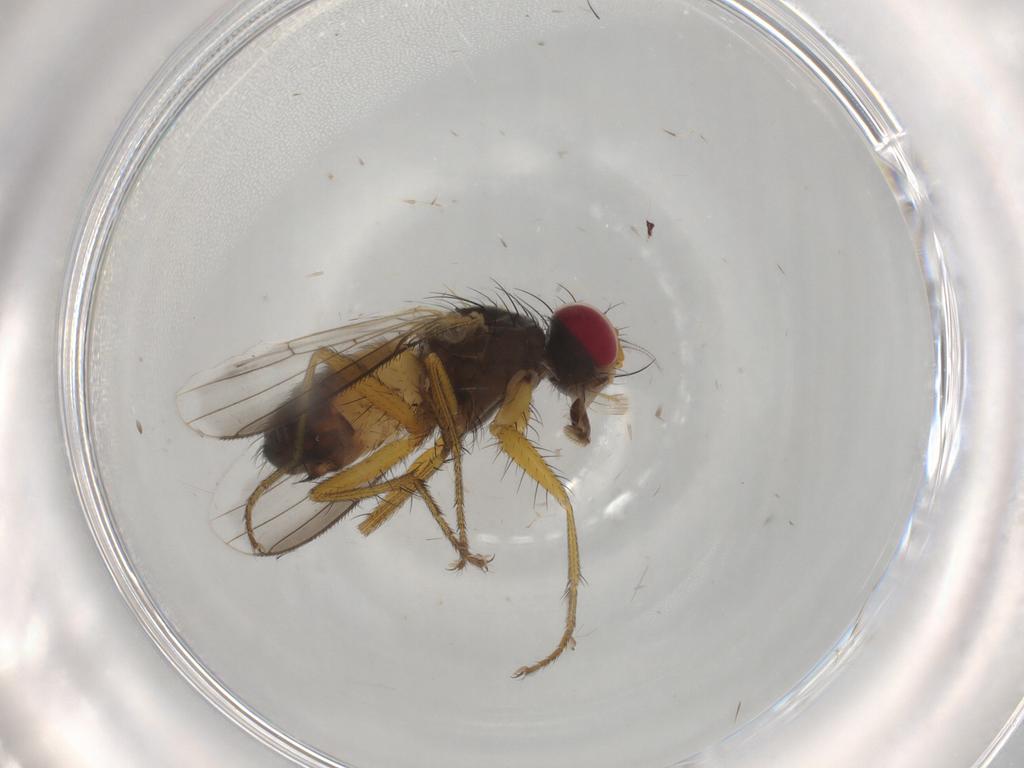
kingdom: Animalia
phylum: Arthropoda
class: Insecta
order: Diptera
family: Muscidae
